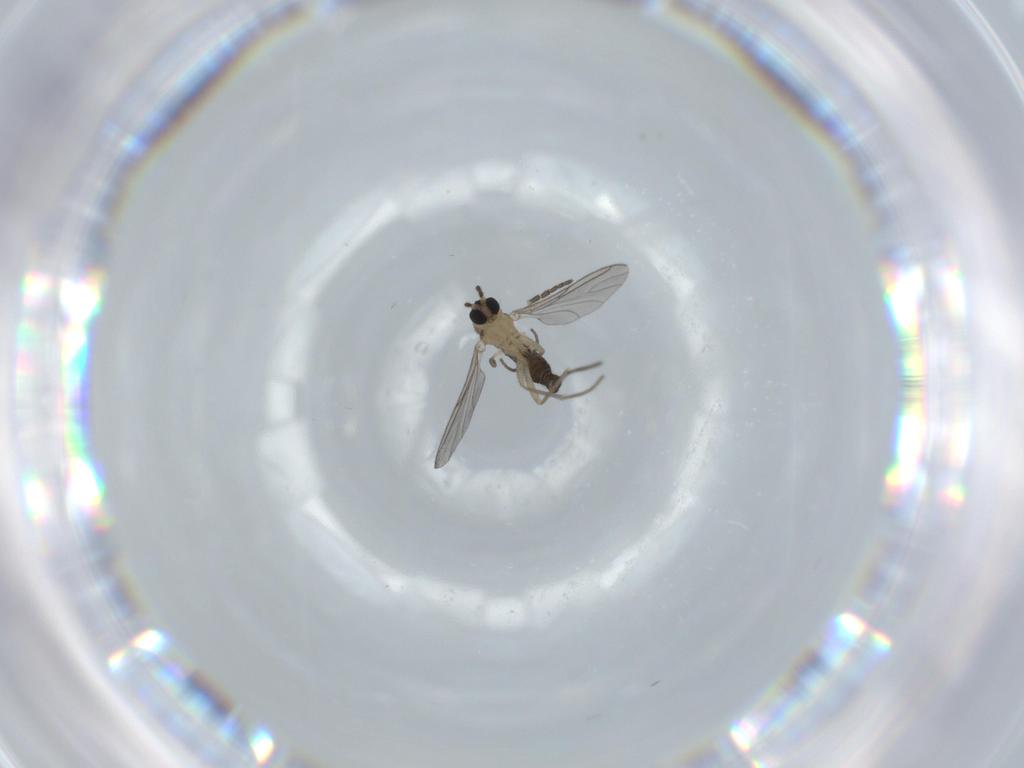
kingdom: Animalia
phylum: Arthropoda
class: Insecta
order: Diptera
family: Sciaridae
